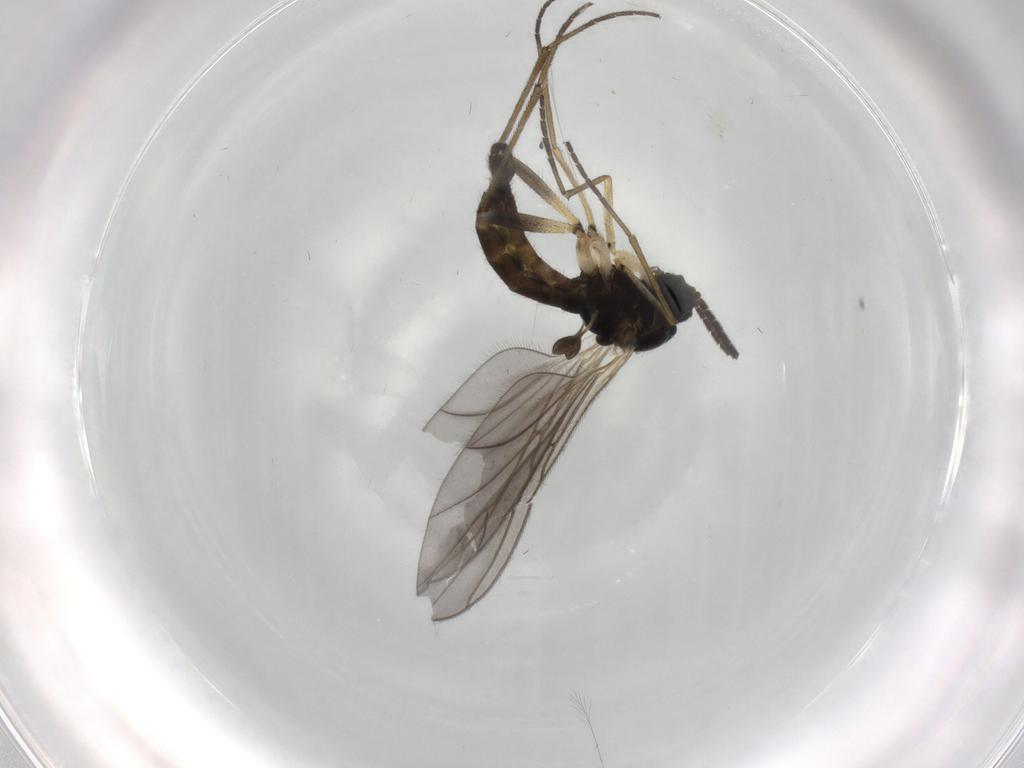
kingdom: Animalia
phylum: Arthropoda
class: Insecta
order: Diptera
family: Sciaridae
